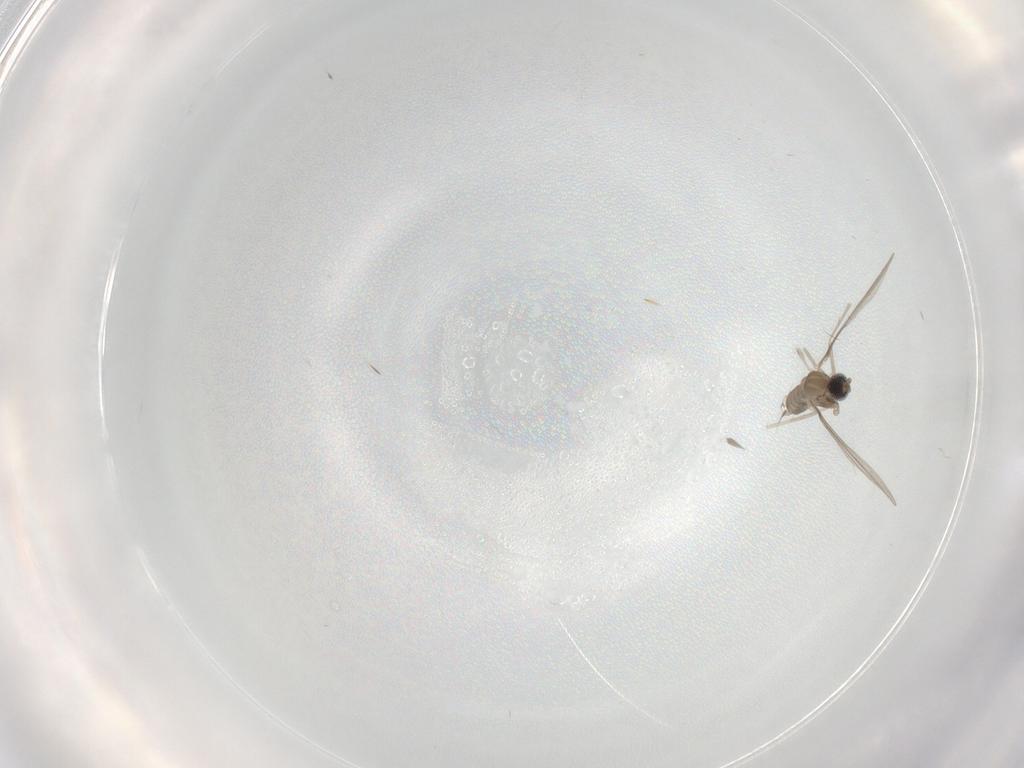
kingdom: Animalia
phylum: Arthropoda
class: Insecta
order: Diptera
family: Cecidomyiidae
